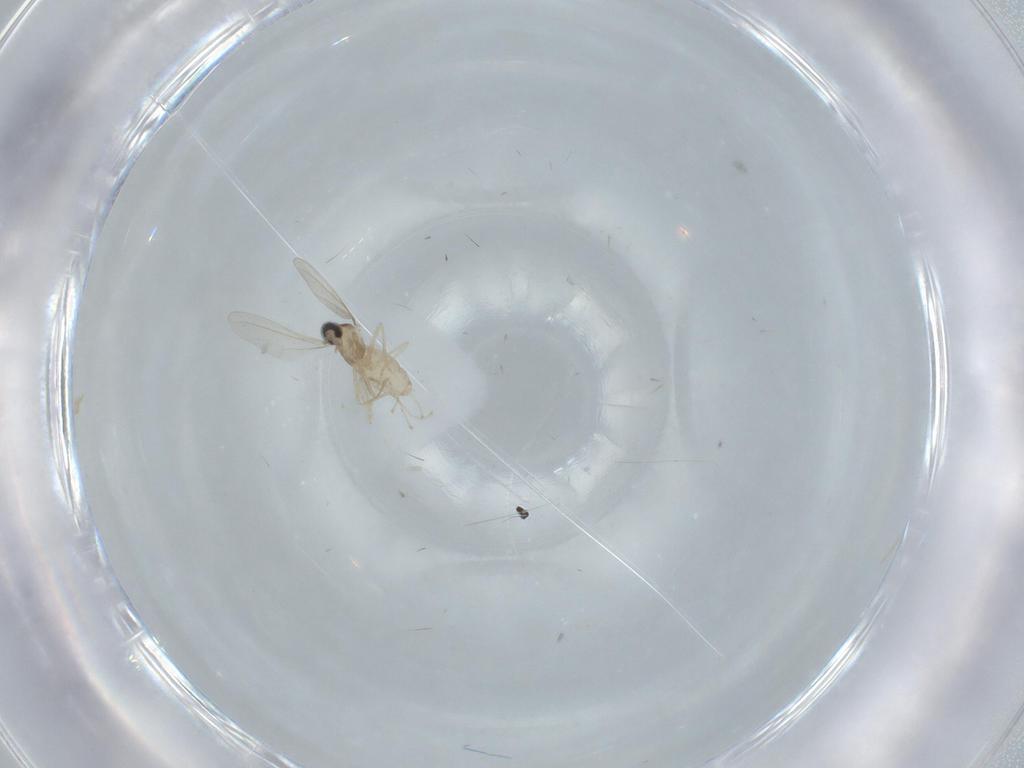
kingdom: Animalia
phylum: Arthropoda
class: Insecta
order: Diptera
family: Cecidomyiidae
